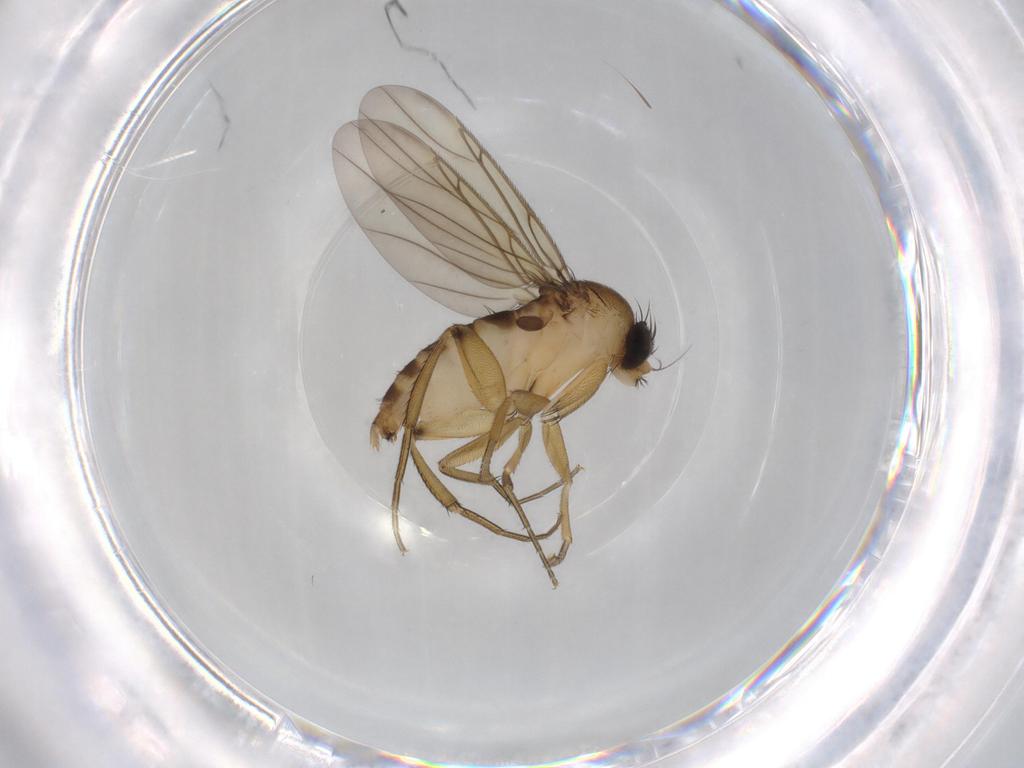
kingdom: Animalia
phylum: Arthropoda
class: Insecta
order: Diptera
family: Phoridae
